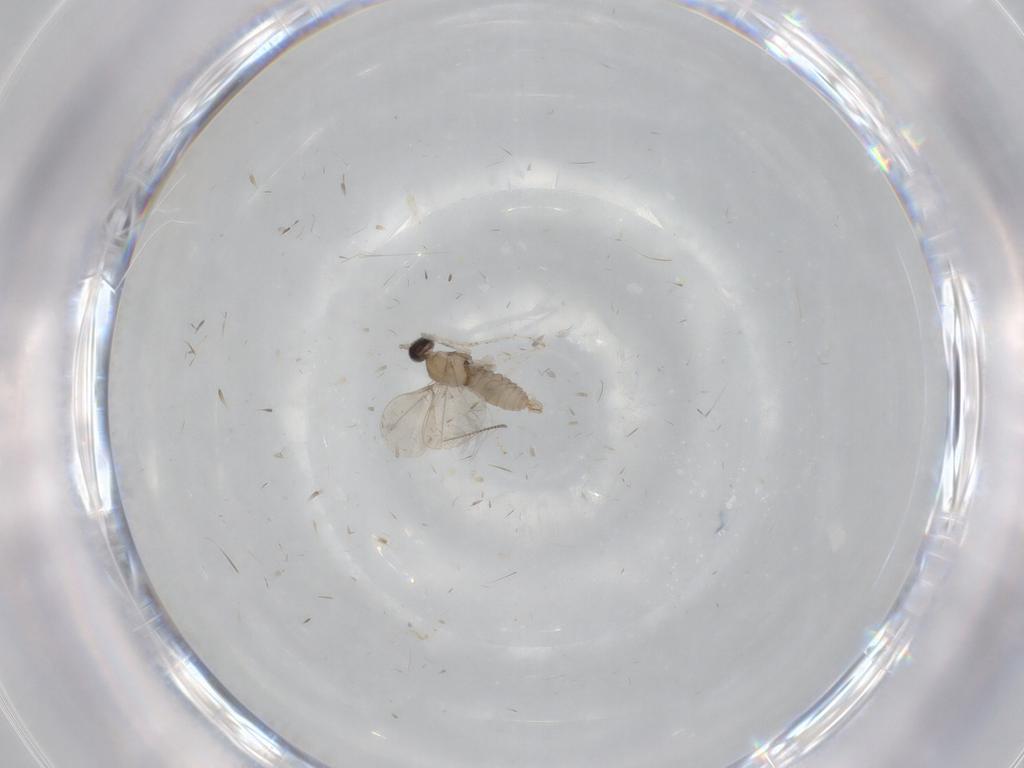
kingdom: Animalia
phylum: Arthropoda
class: Insecta
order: Diptera
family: Cecidomyiidae
